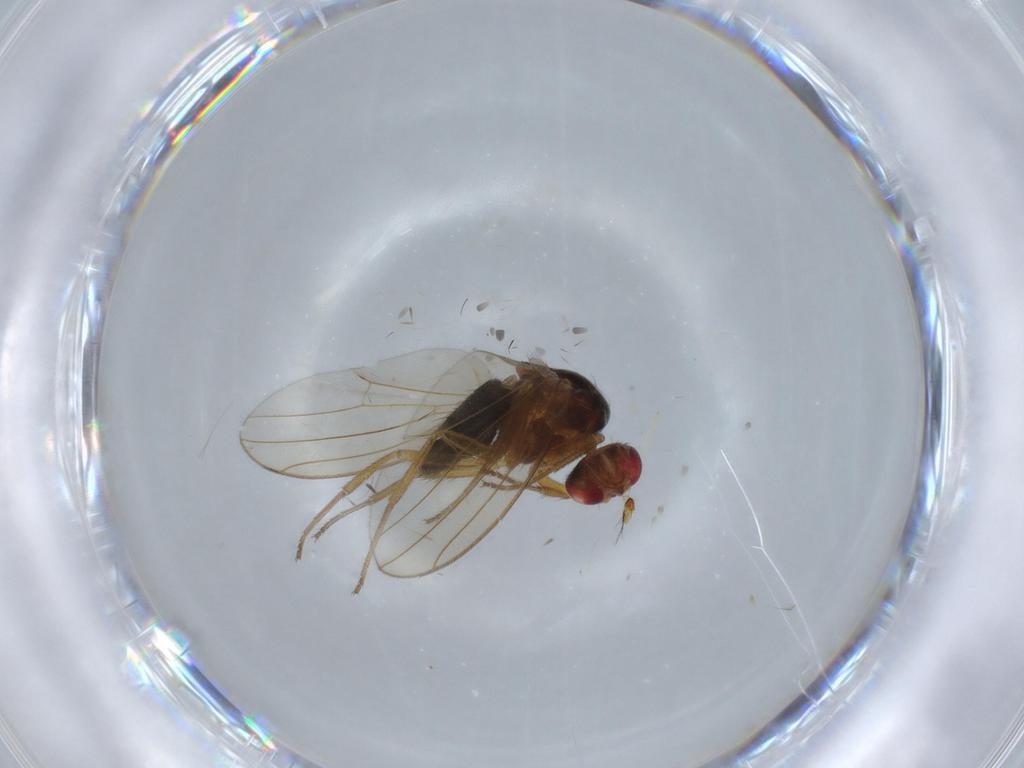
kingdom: Animalia
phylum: Arthropoda
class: Insecta
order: Diptera
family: Drosophilidae
